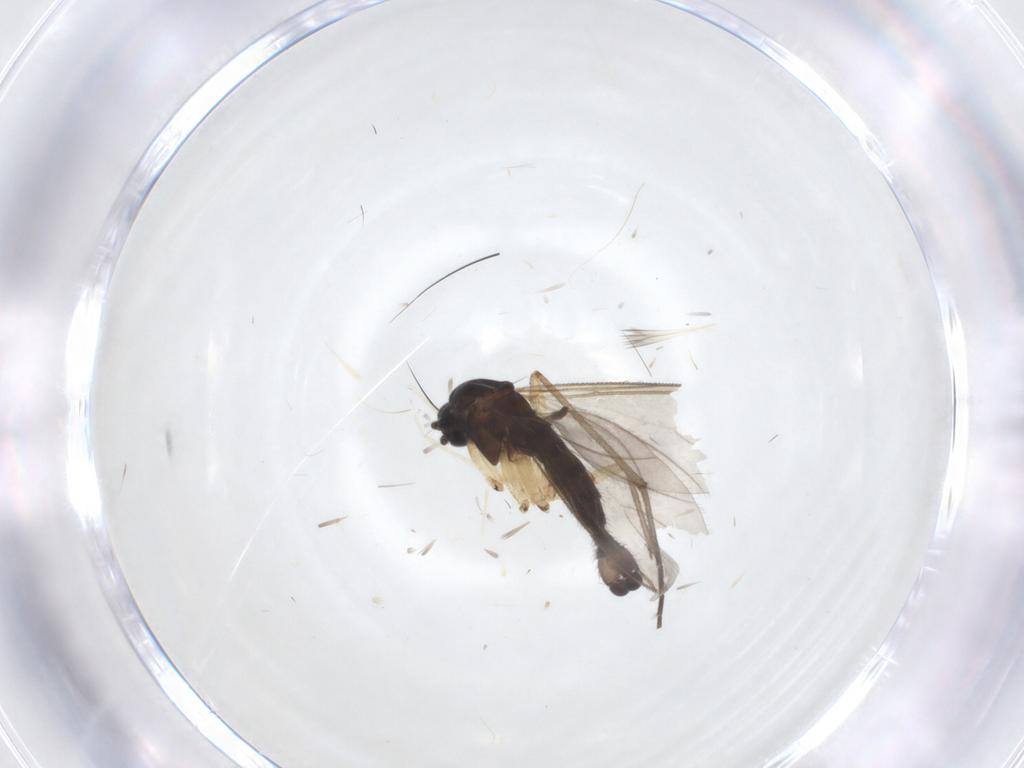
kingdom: Animalia
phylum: Arthropoda
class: Insecta
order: Diptera
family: Sciaridae
